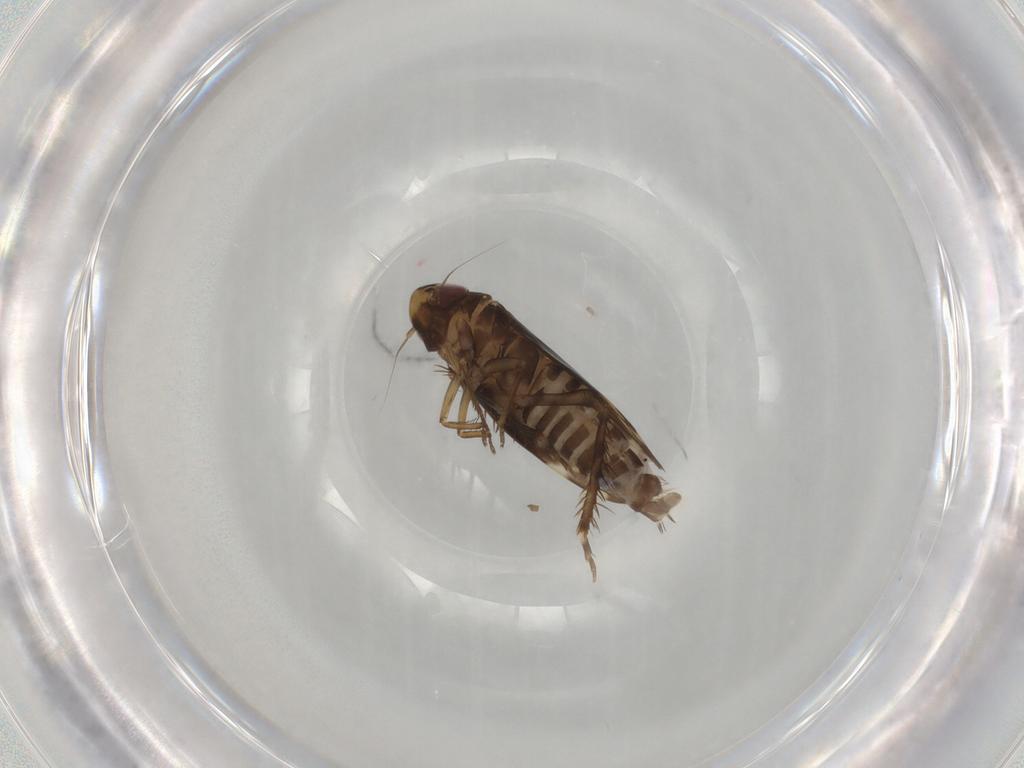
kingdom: Animalia
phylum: Arthropoda
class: Insecta
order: Hemiptera
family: Cicadellidae
